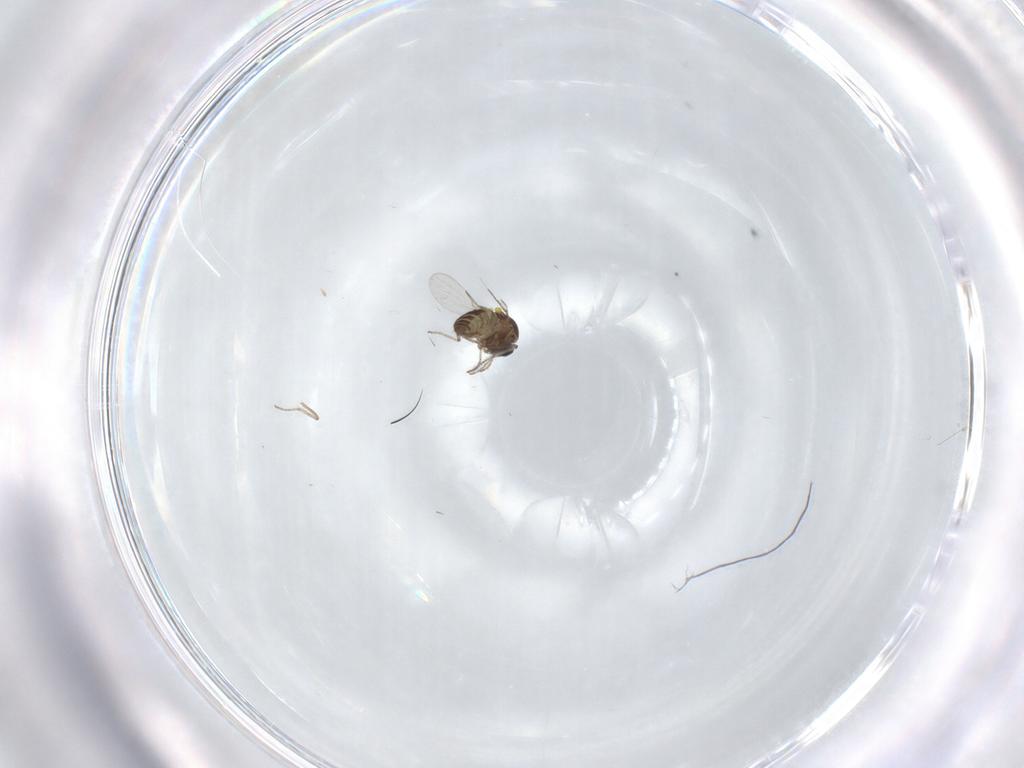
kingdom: Animalia
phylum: Arthropoda
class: Insecta
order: Diptera
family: Ceratopogonidae
